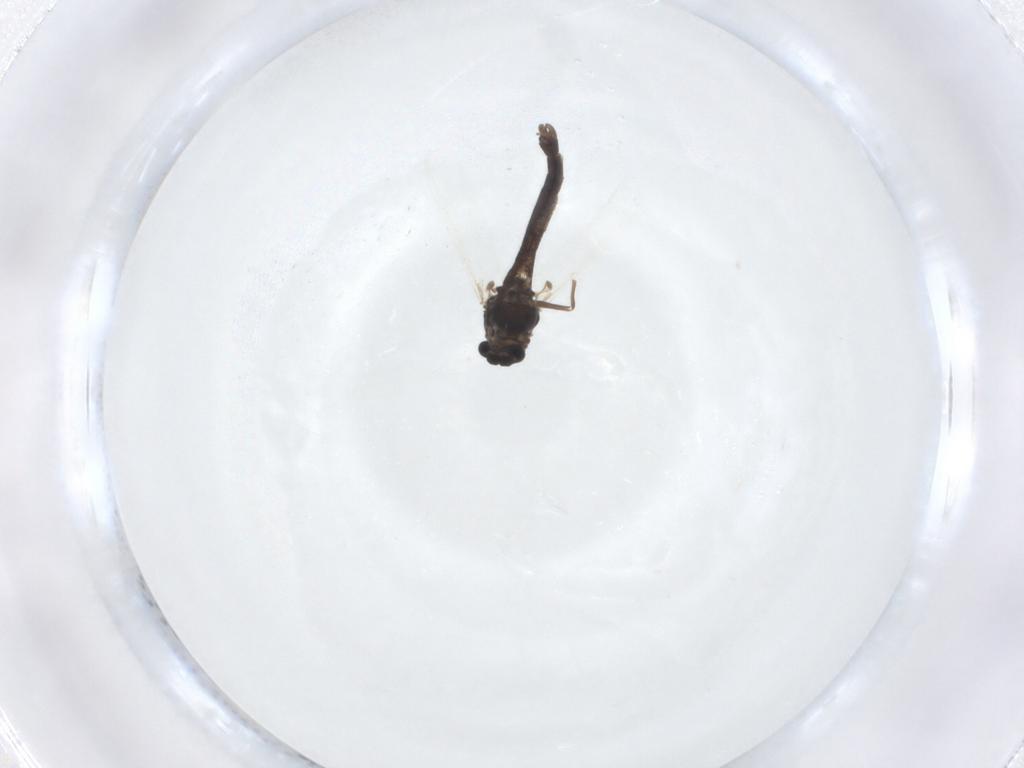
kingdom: Animalia
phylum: Arthropoda
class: Insecta
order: Diptera
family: Chironomidae
